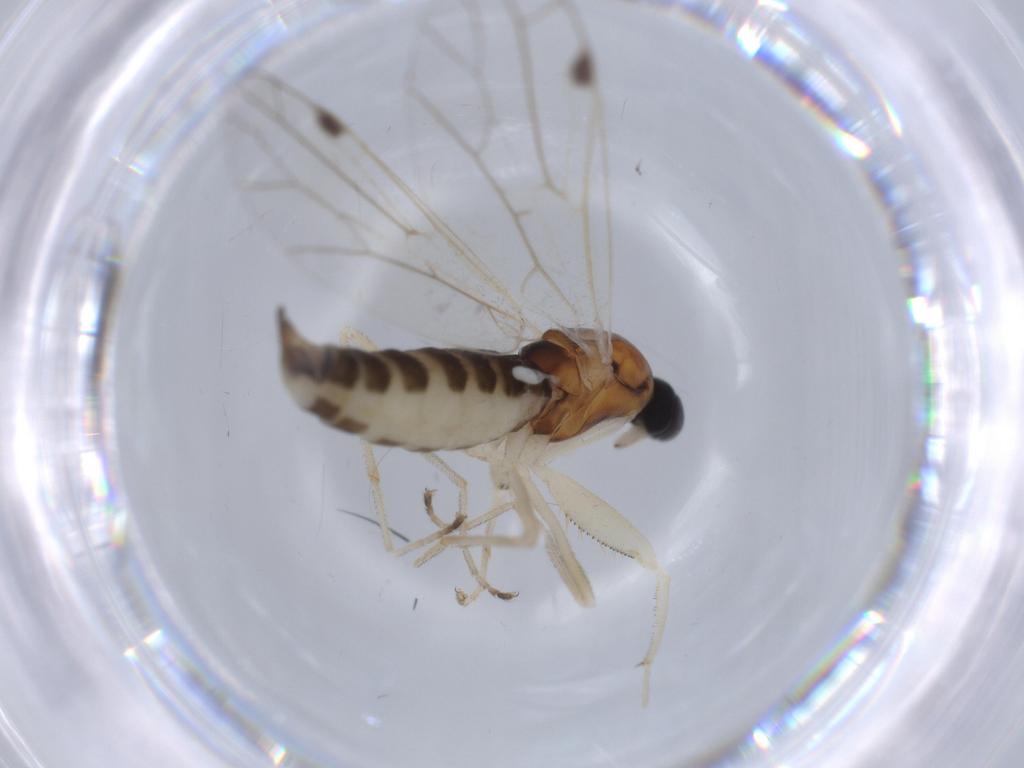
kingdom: Animalia
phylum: Arthropoda
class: Insecta
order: Diptera
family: Empididae
